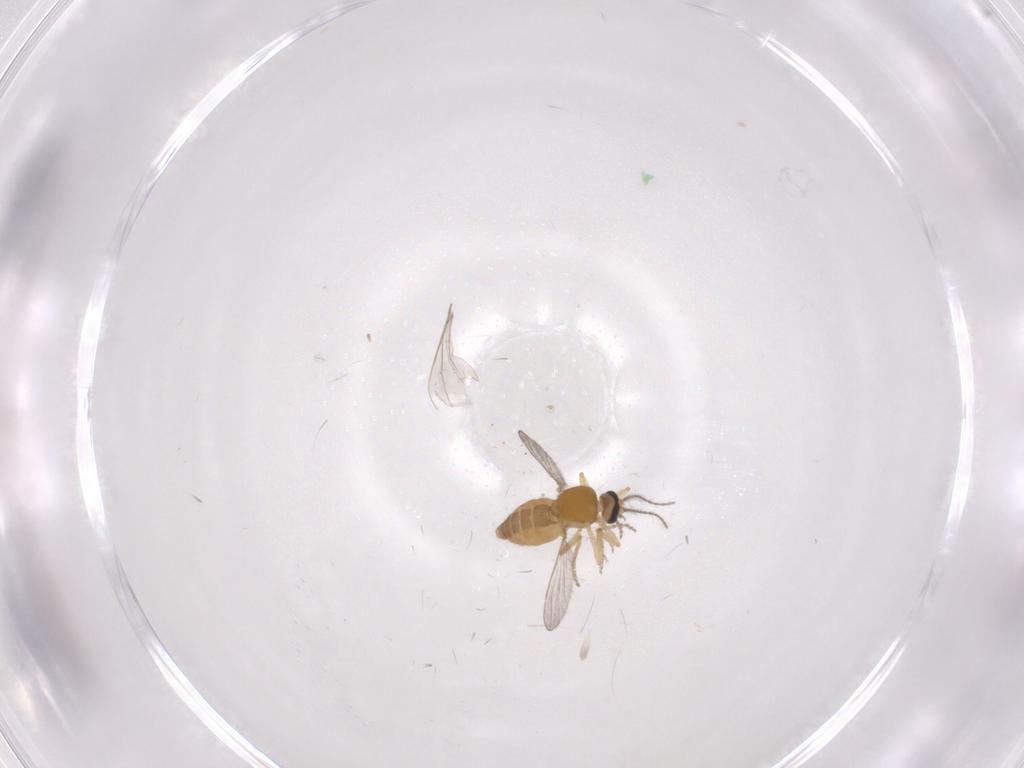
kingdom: Animalia
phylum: Arthropoda
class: Insecta
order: Diptera
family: Ceratopogonidae
